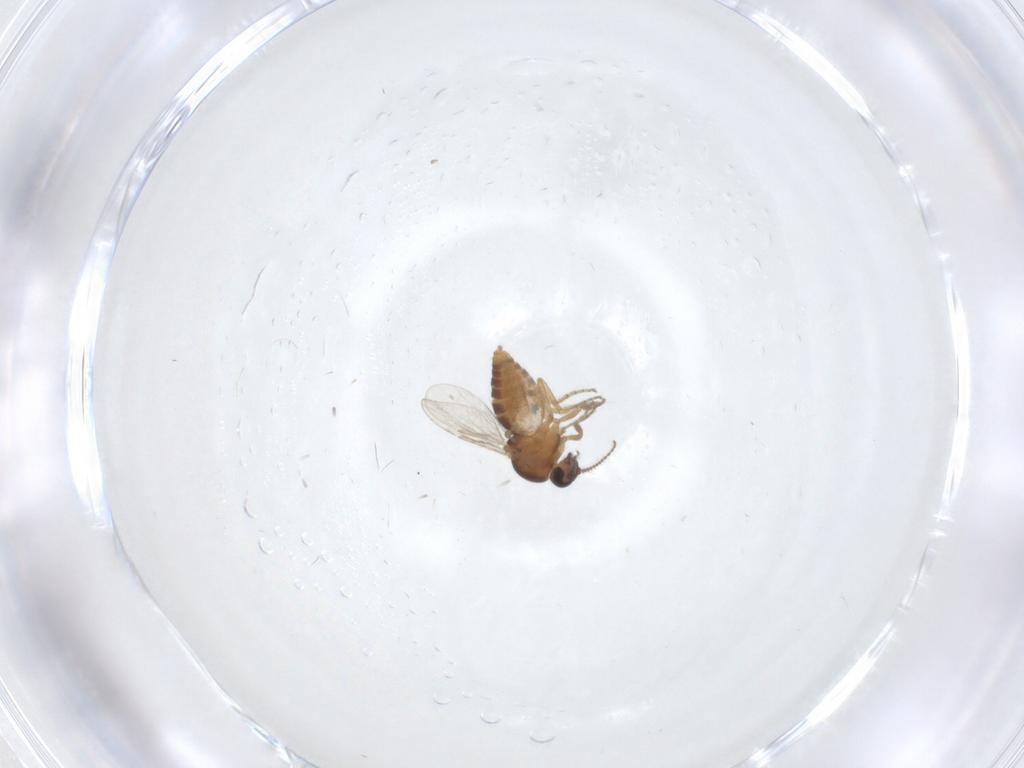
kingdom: Animalia
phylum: Arthropoda
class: Insecta
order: Diptera
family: Ceratopogonidae
